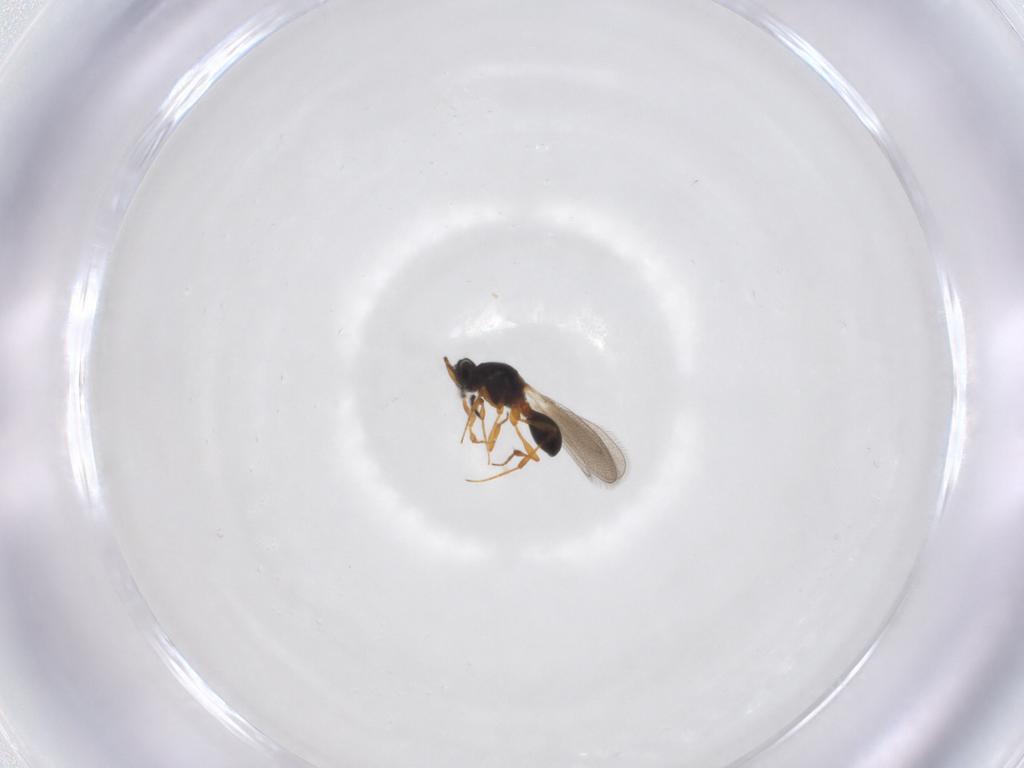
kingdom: Animalia
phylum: Arthropoda
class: Insecta
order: Hymenoptera
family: Platygastridae
